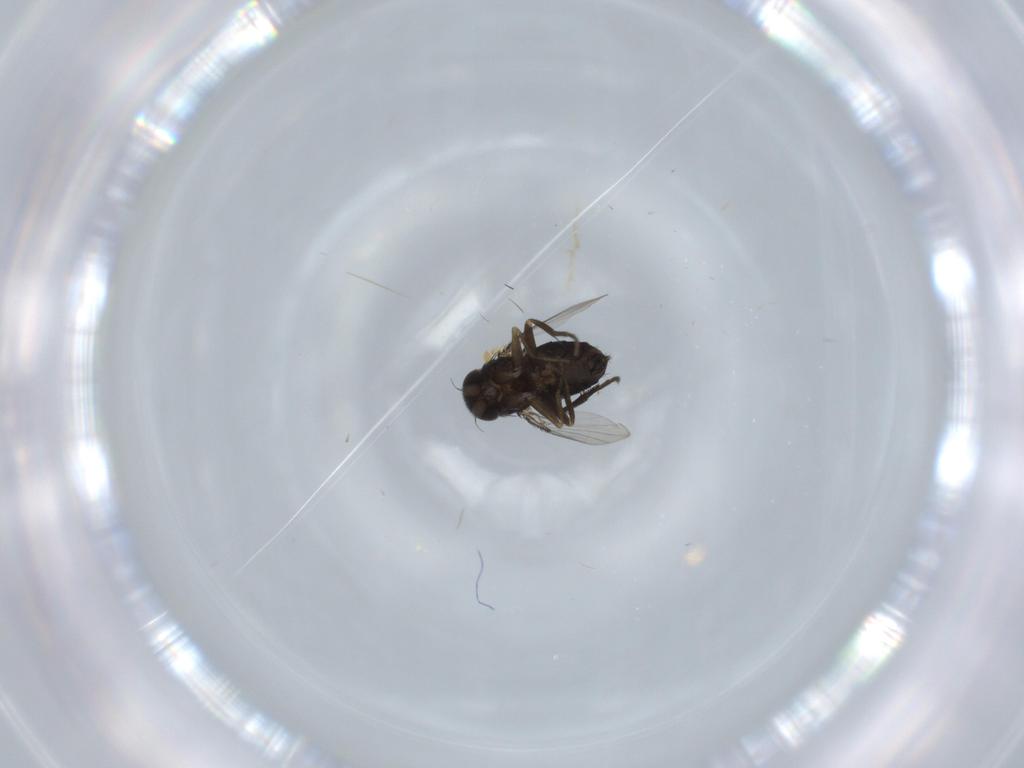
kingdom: Animalia
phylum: Arthropoda
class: Insecta
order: Diptera
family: Phoridae
